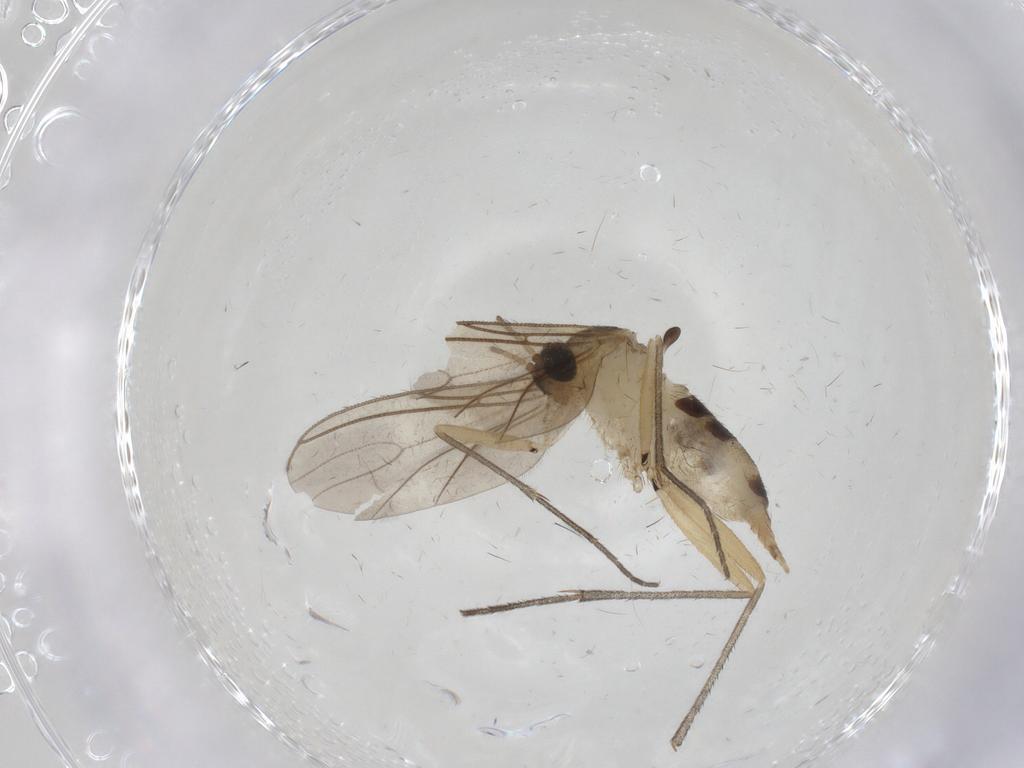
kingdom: Animalia
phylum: Arthropoda
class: Insecta
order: Diptera
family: Sciaridae
